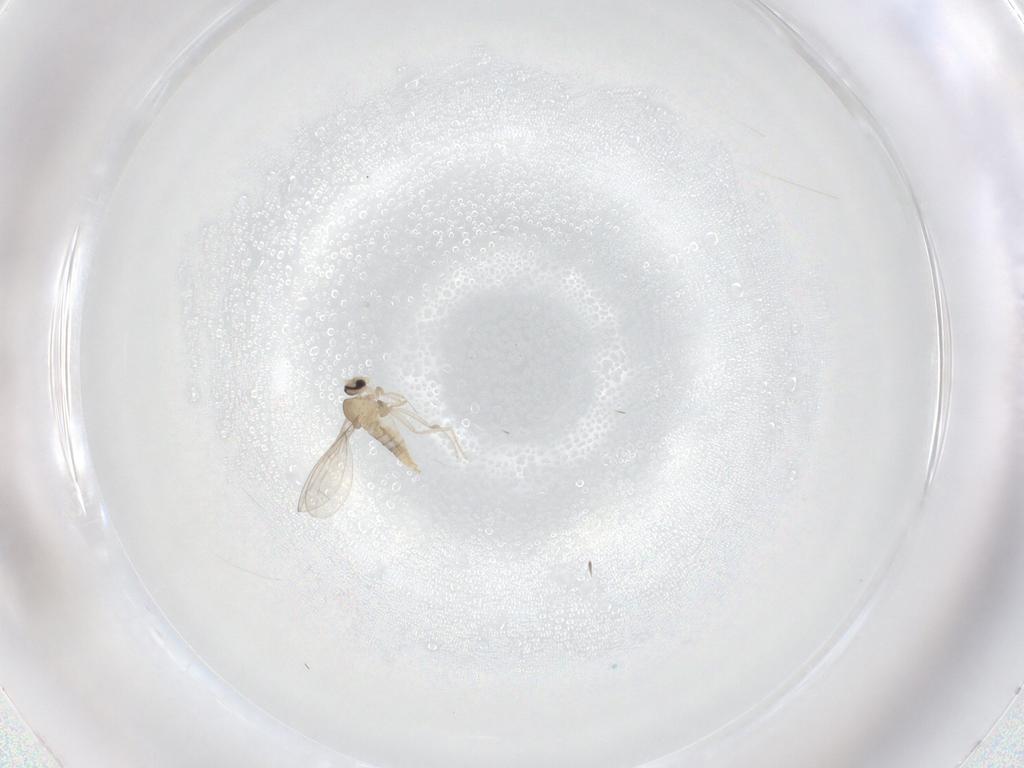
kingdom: Animalia
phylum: Arthropoda
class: Insecta
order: Diptera
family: Cecidomyiidae
